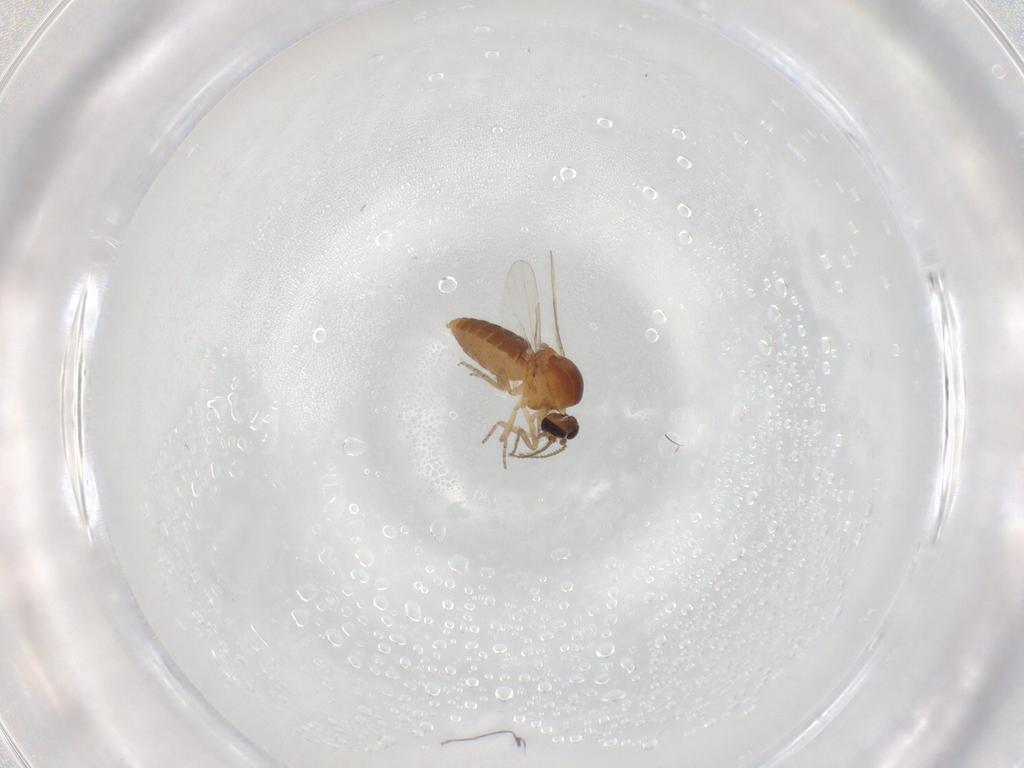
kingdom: Animalia
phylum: Arthropoda
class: Insecta
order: Diptera
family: Ceratopogonidae
